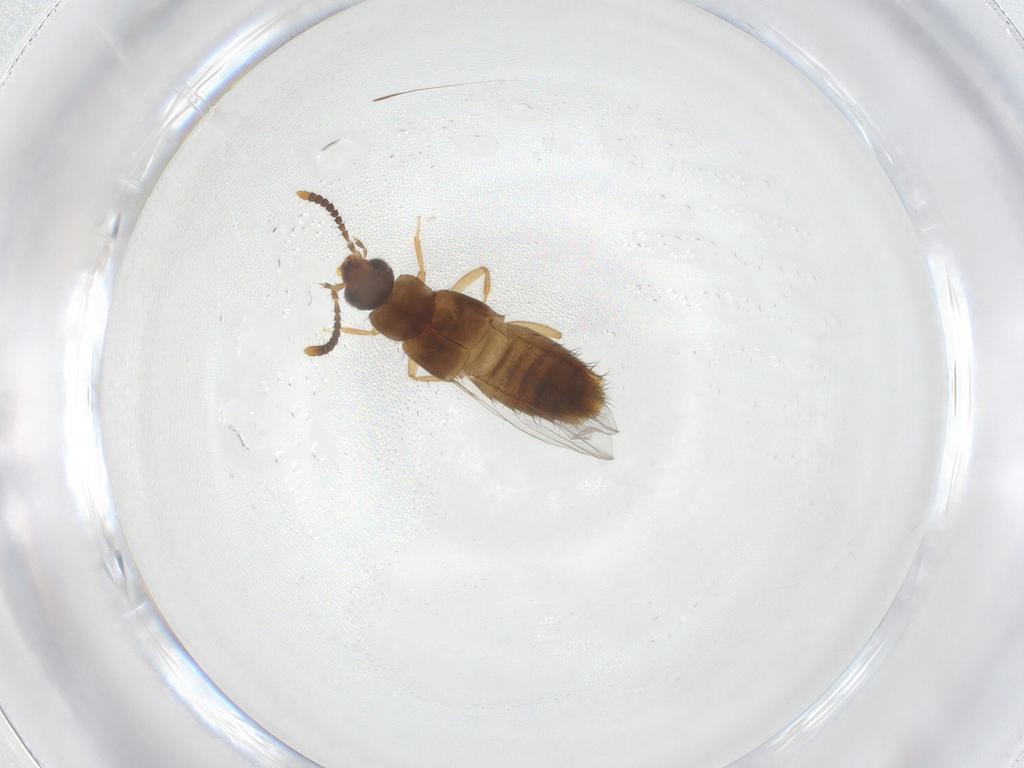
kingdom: Animalia
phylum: Arthropoda
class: Insecta
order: Coleoptera
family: Staphylinidae
